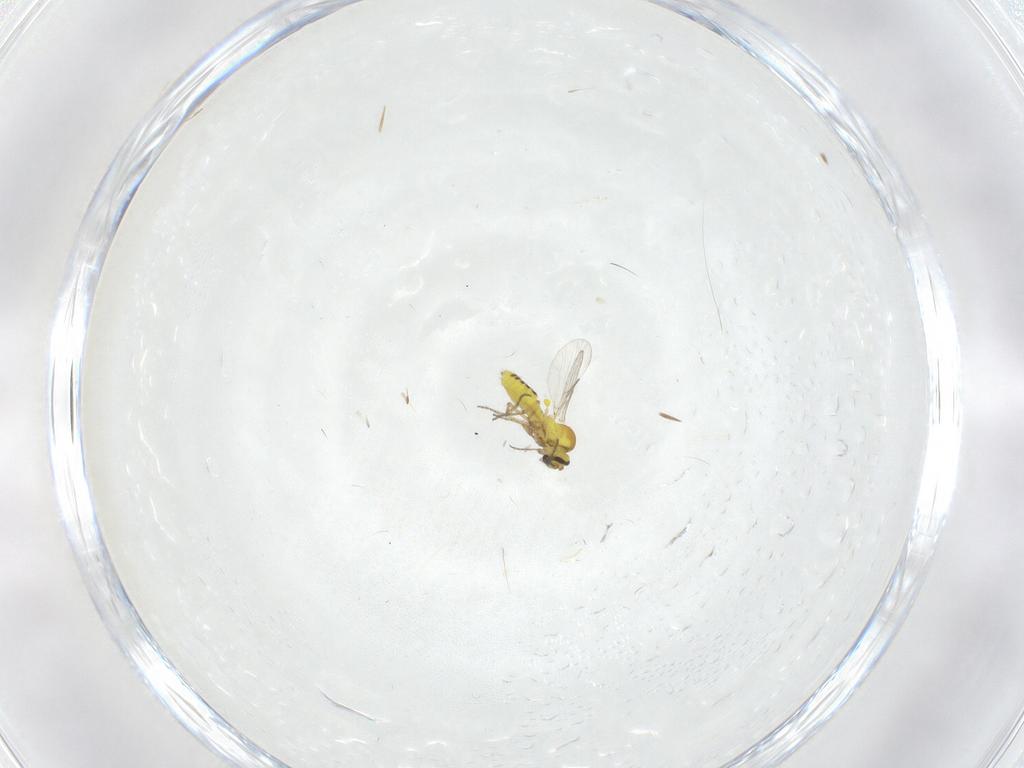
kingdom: Animalia
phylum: Arthropoda
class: Insecta
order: Diptera
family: Ceratopogonidae
